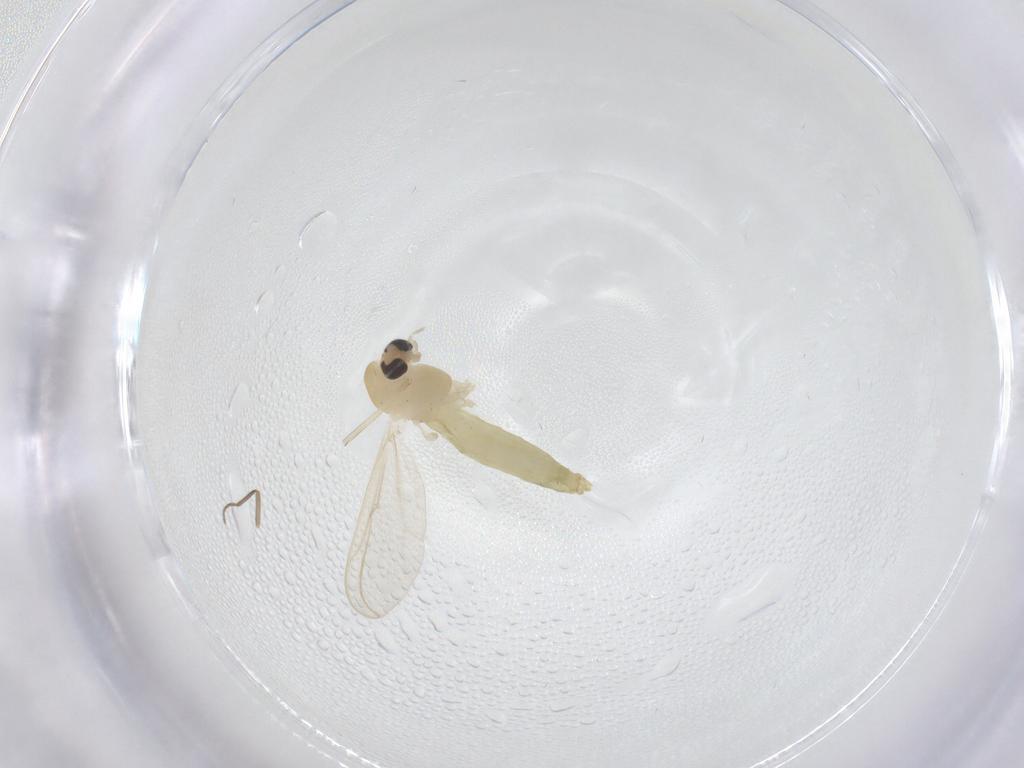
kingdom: Animalia
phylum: Arthropoda
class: Insecta
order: Diptera
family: Chironomidae
